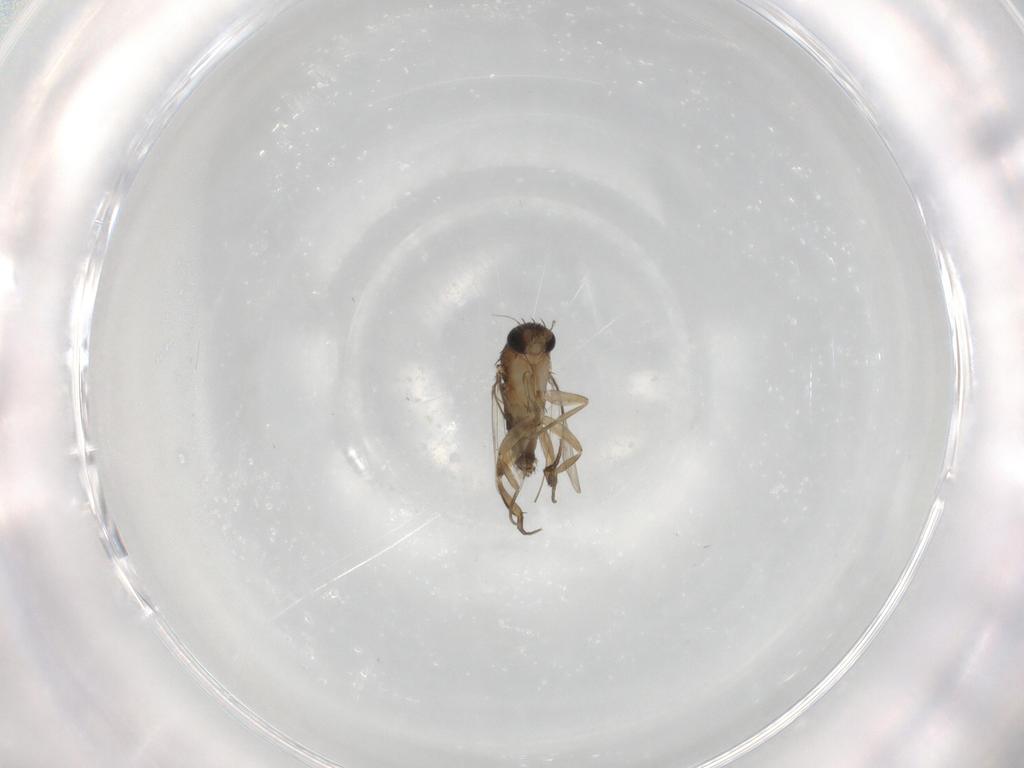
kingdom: Animalia
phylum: Arthropoda
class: Insecta
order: Diptera
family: Phoridae
